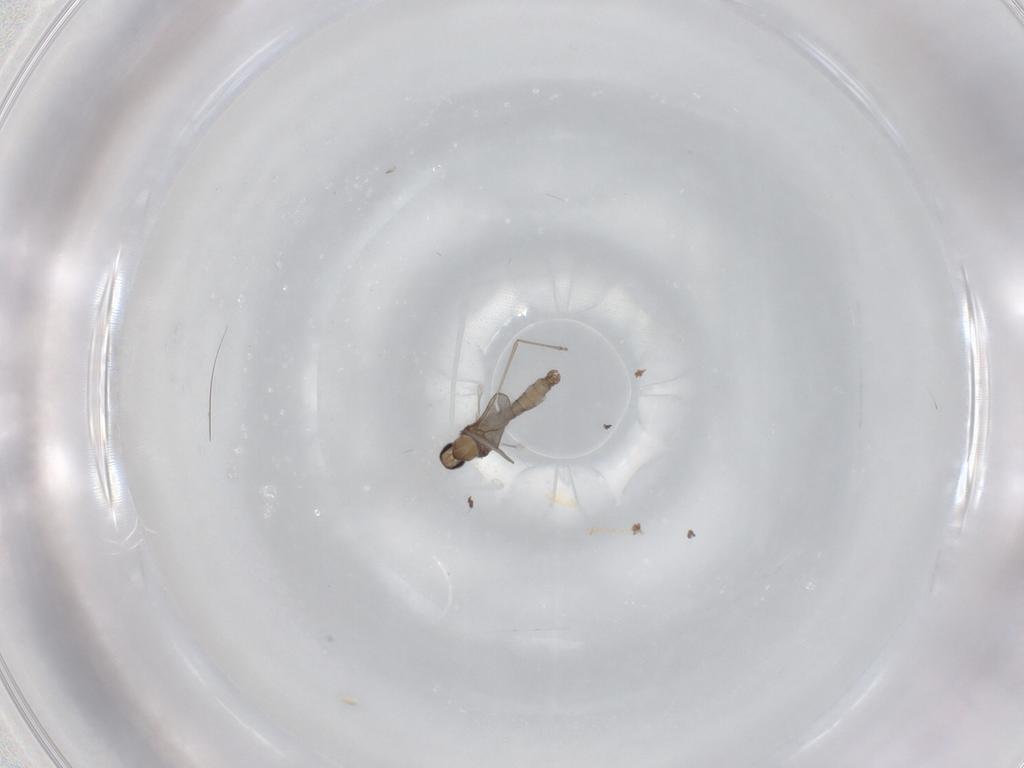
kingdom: Animalia
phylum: Arthropoda
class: Insecta
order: Diptera
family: Cecidomyiidae
